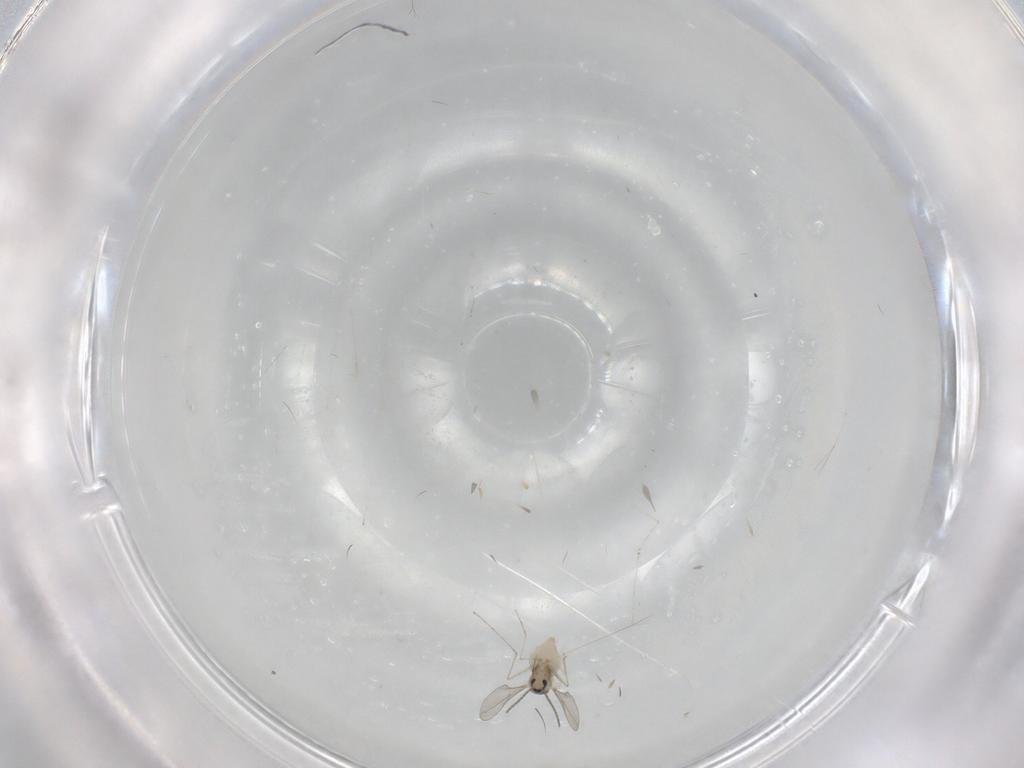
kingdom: Animalia
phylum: Arthropoda
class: Insecta
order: Diptera
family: Cecidomyiidae
